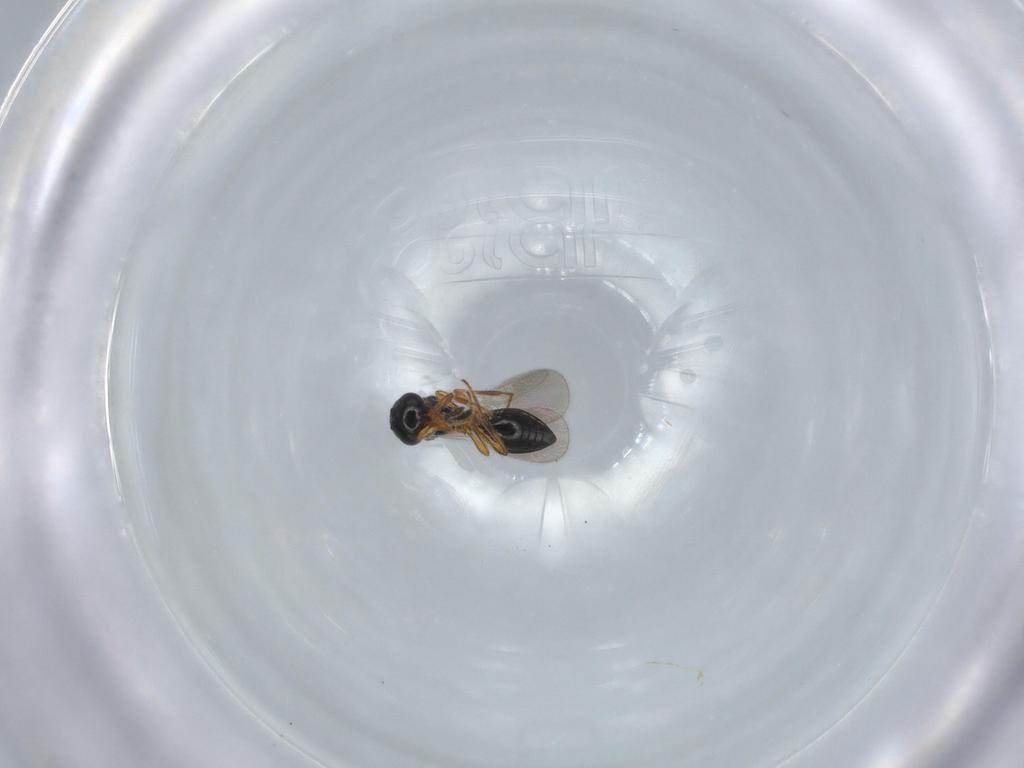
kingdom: Animalia
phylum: Arthropoda
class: Insecta
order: Hymenoptera
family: Platygastridae
